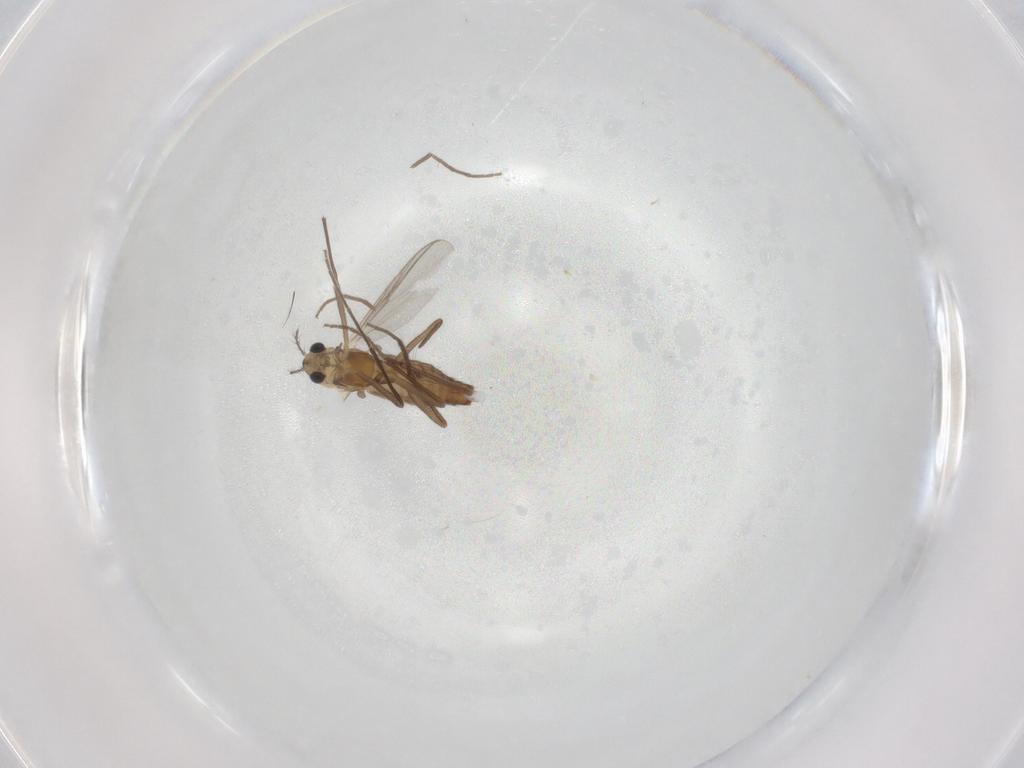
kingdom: Animalia
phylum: Arthropoda
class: Insecta
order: Diptera
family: Chironomidae
